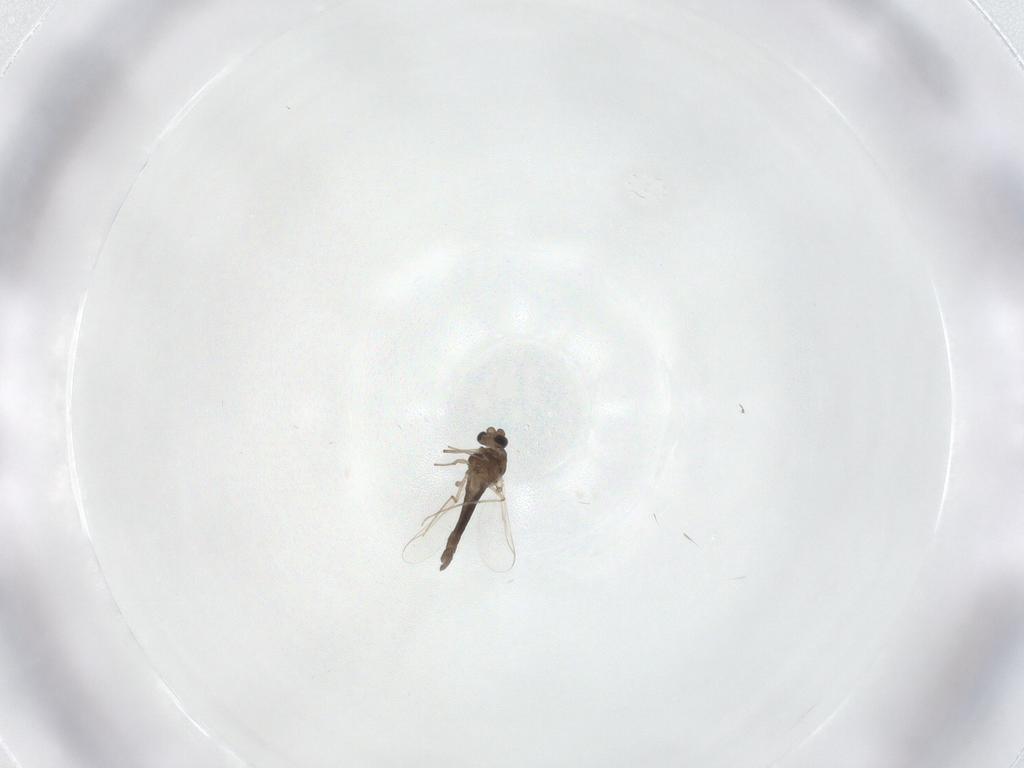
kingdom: Animalia
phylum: Arthropoda
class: Insecta
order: Diptera
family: Chironomidae
